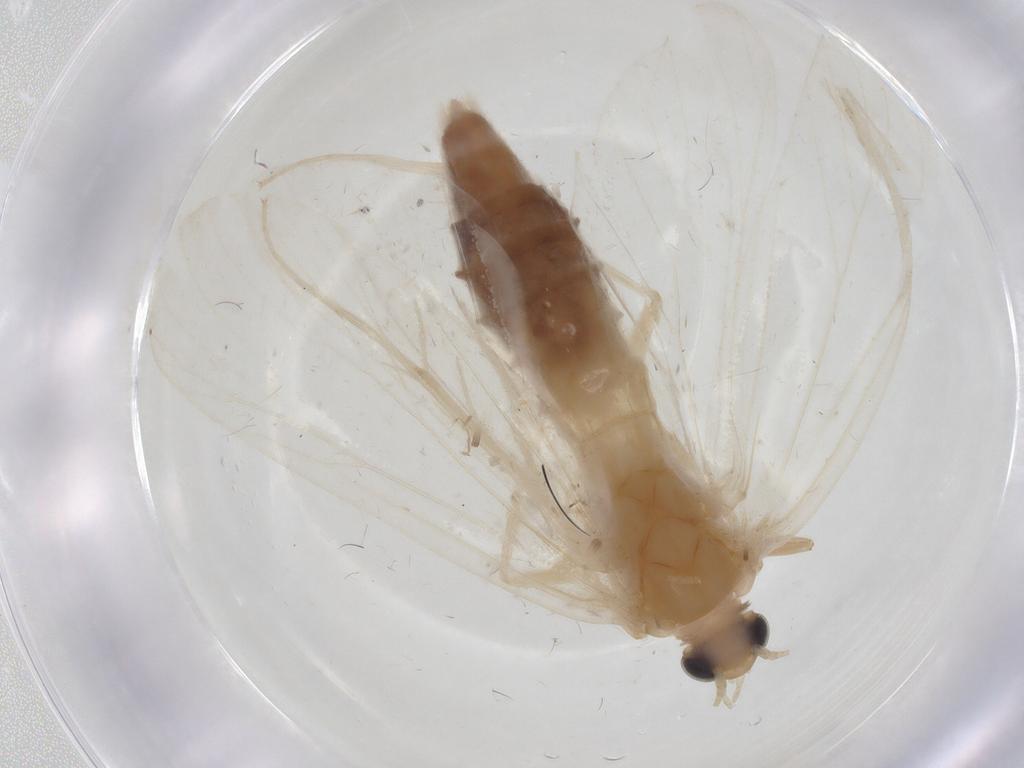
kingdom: Animalia
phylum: Arthropoda
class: Insecta
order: Lepidoptera
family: Crambidae
